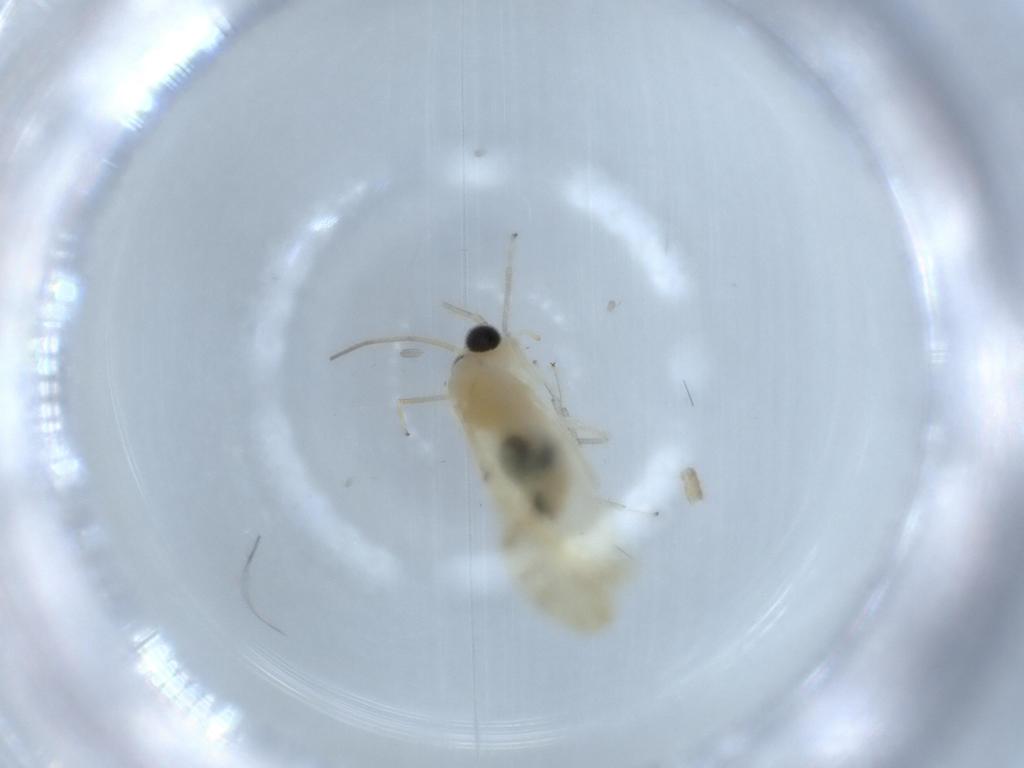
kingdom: Animalia
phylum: Arthropoda
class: Insecta
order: Psocodea
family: Caeciliusidae
